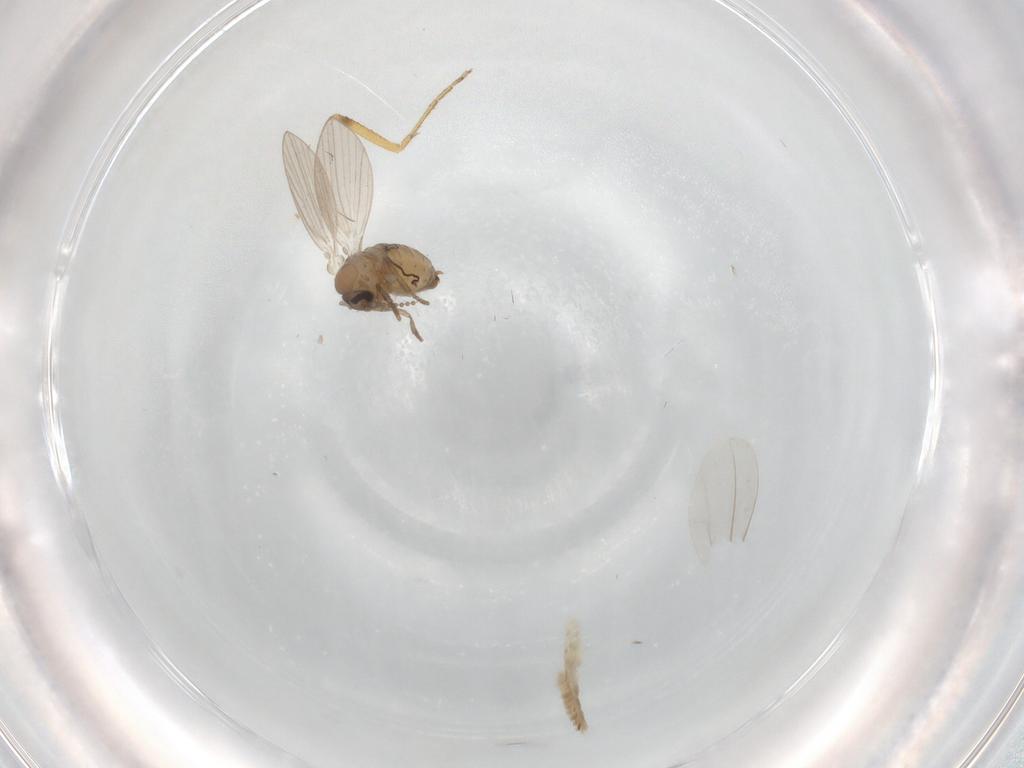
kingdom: Animalia
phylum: Arthropoda
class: Insecta
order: Diptera
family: Psychodidae
